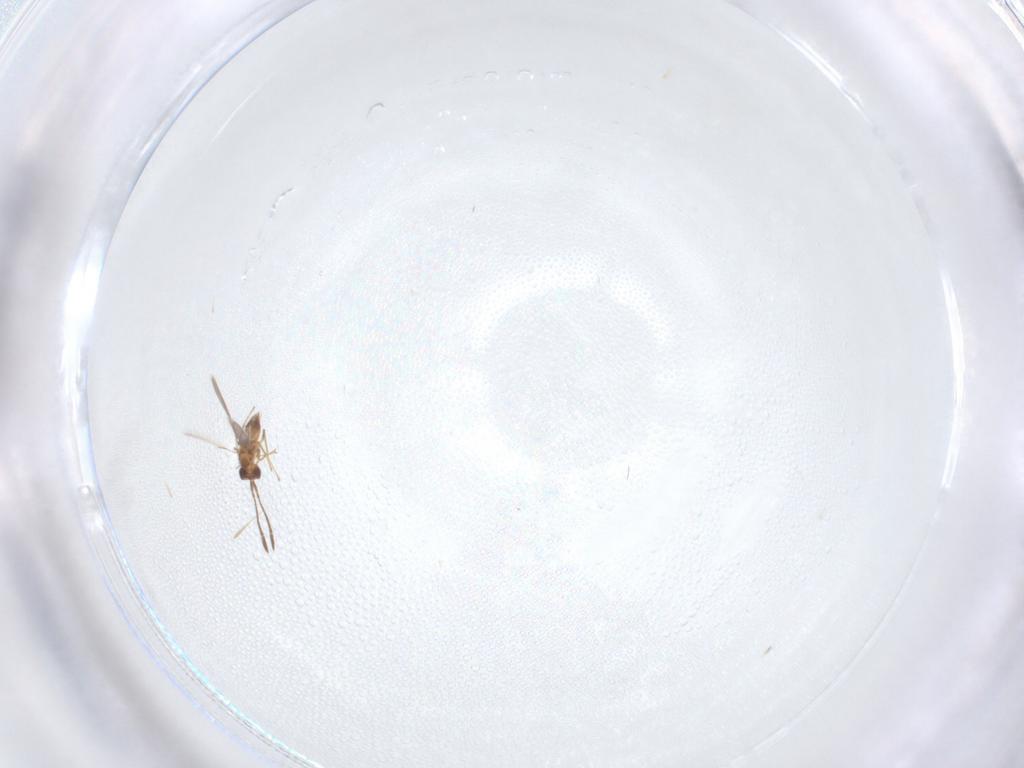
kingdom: Animalia
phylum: Arthropoda
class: Insecta
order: Hymenoptera
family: Mymaridae
